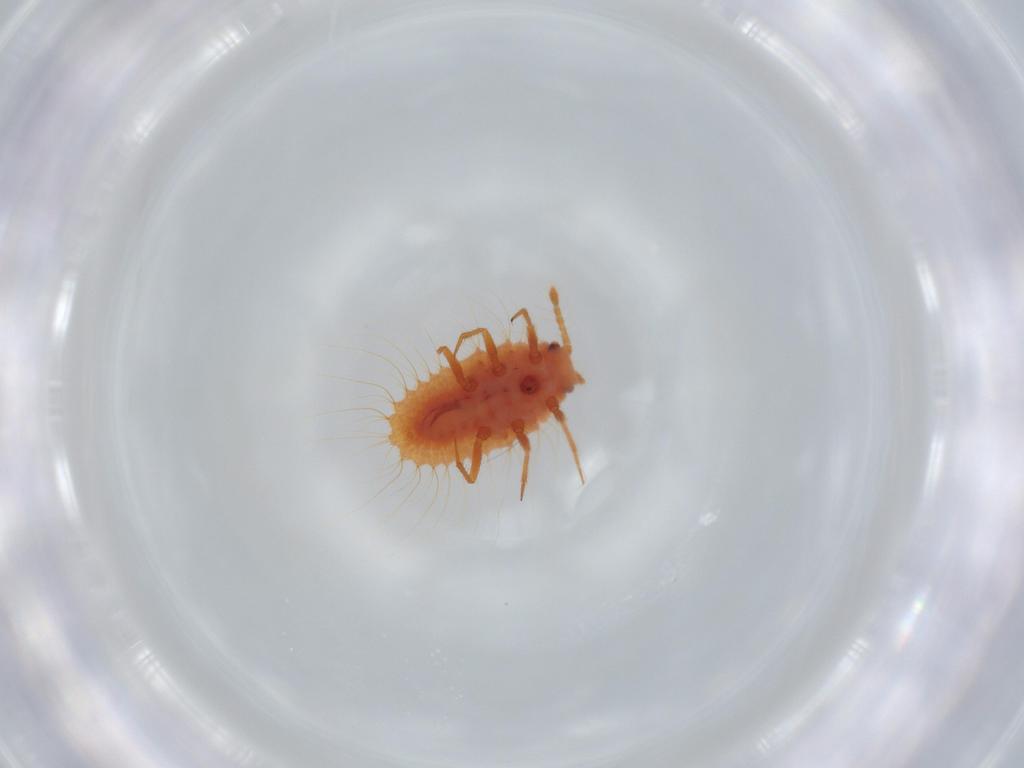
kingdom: Animalia
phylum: Arthropoda
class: Insecta
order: Hemiptera
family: Cicadellidae
